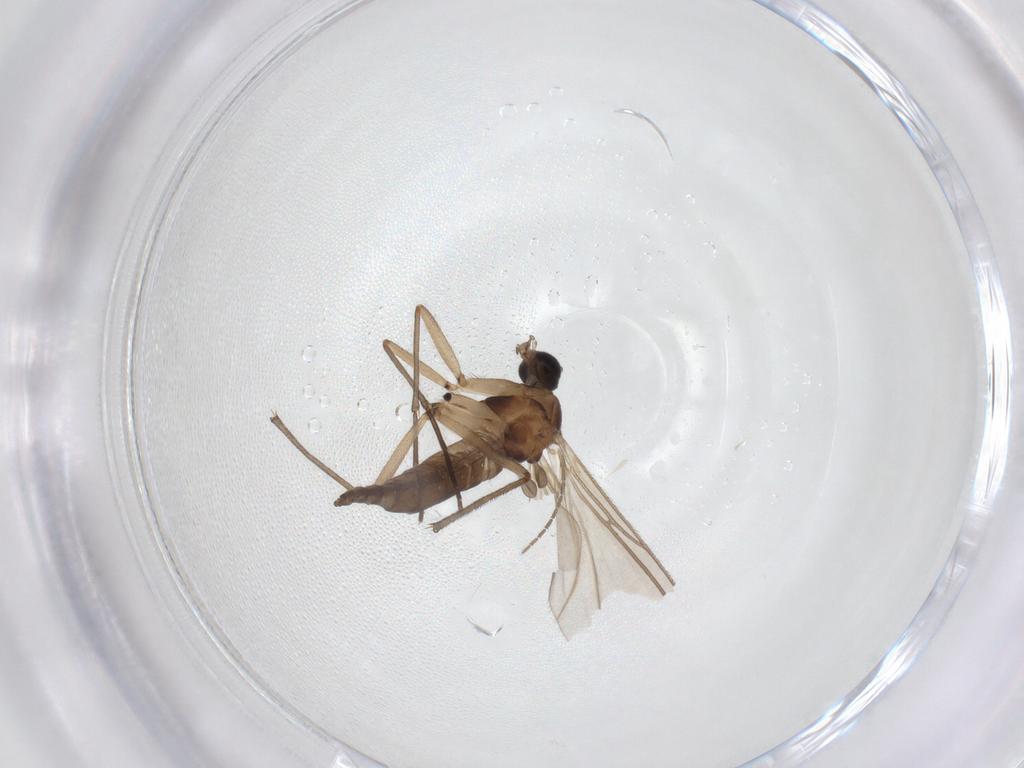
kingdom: Animalia
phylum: Arthropoda
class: Insecta
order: Diptera
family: Sciaridae
